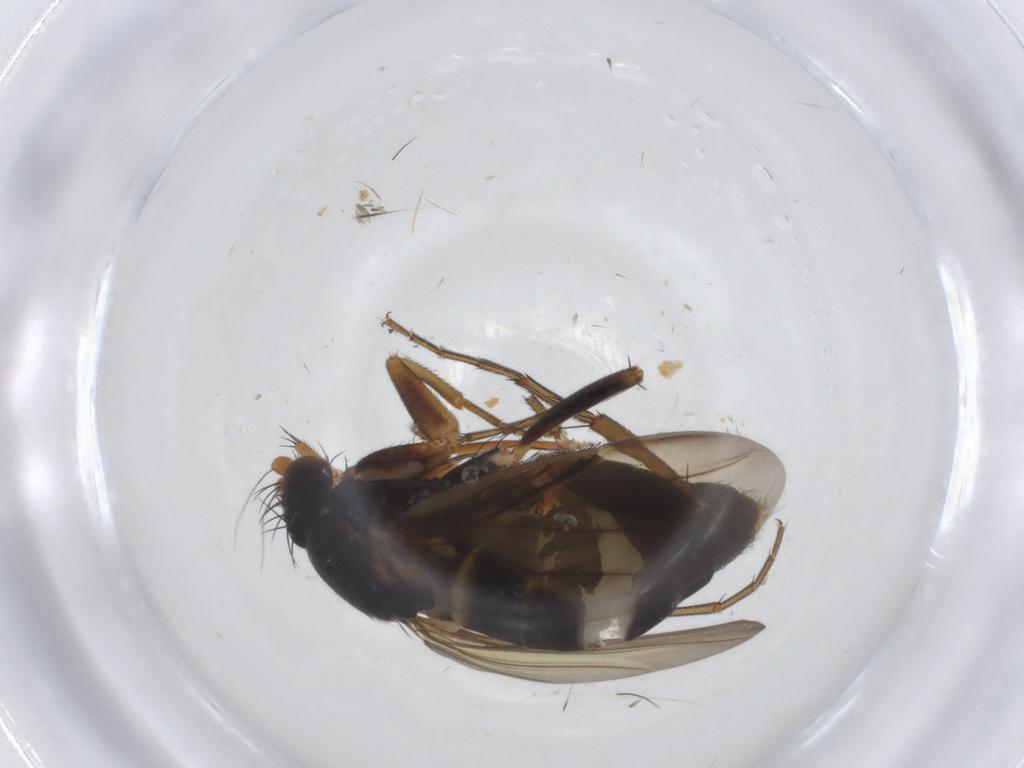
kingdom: Animalia
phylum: Arthropoda
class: Insecta
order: Diptera
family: Phoridae
